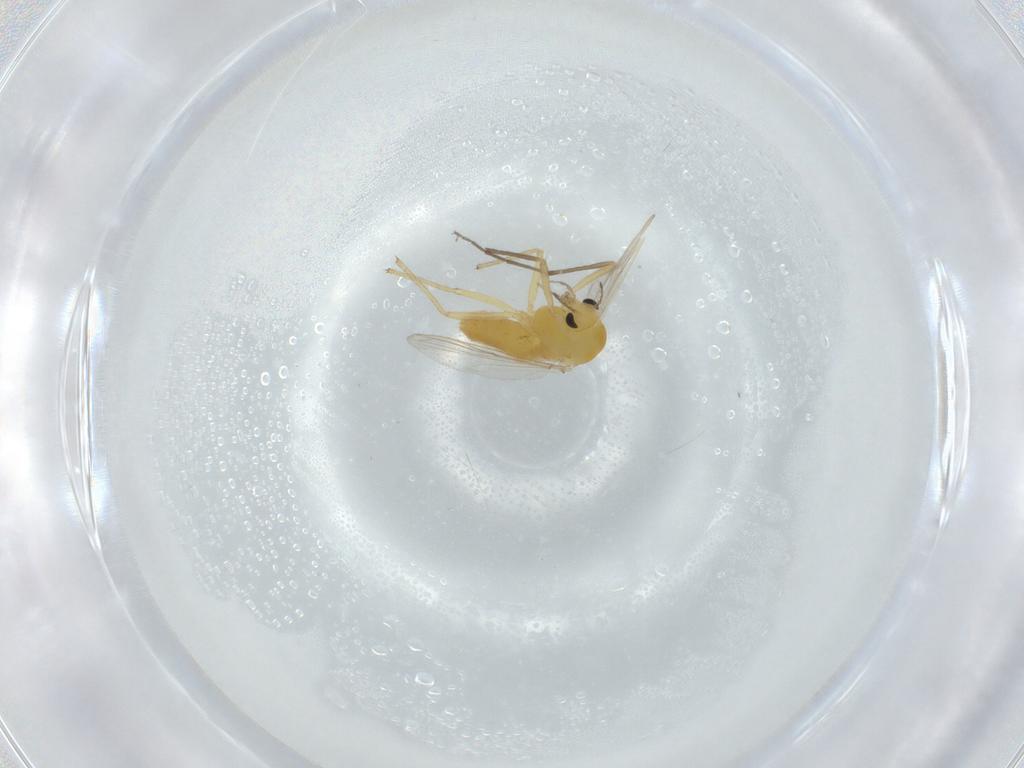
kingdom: Animalia
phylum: Arthropoda
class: Insecta
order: Diptera
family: Chironomidae
